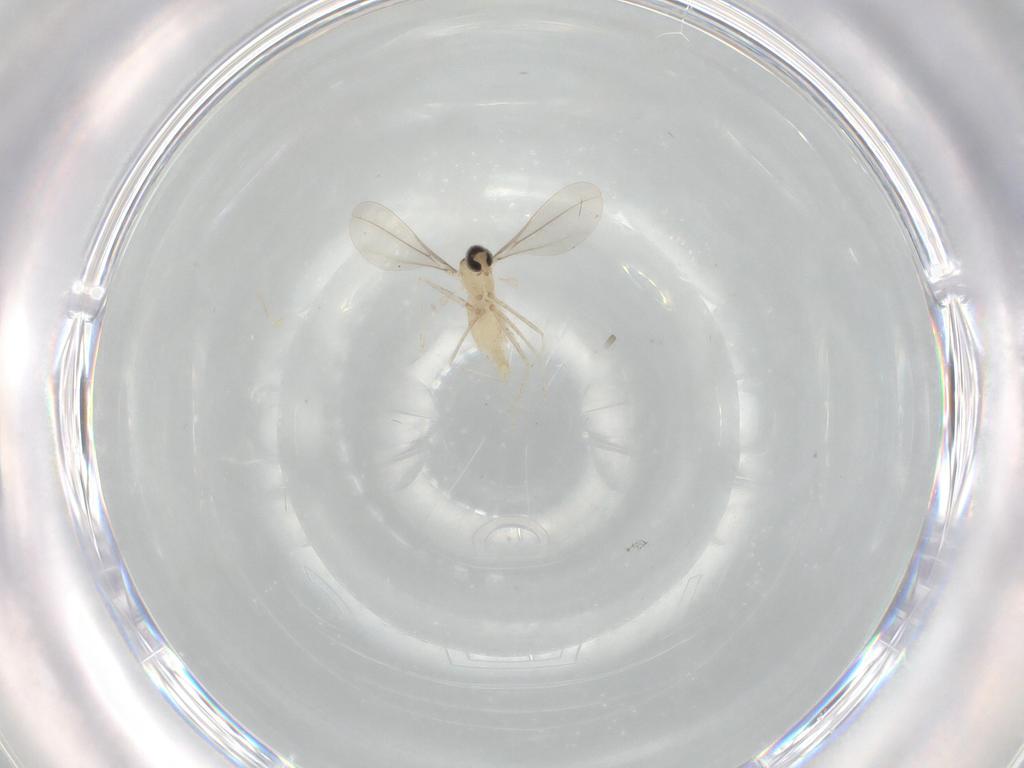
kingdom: Animalia
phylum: Arthropoda
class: Insecta
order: Diptera
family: Cecidomyiidae
